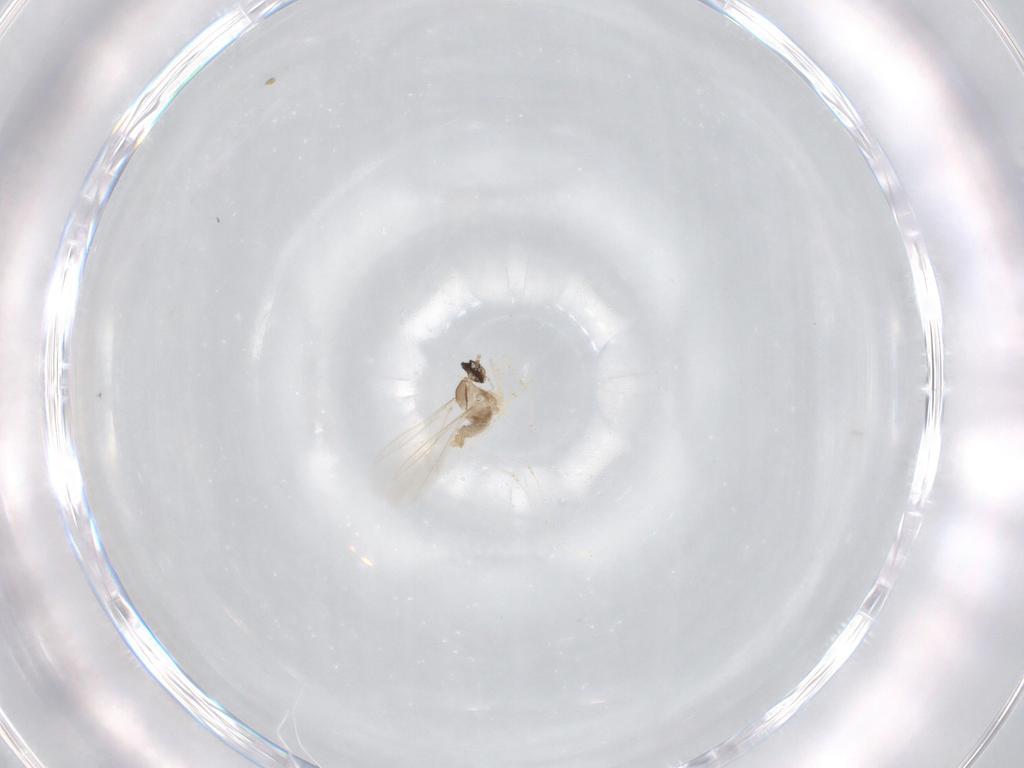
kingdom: Animalia
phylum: Arthropoda
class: Insecta
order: Diptera
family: Cecidomyiidae
